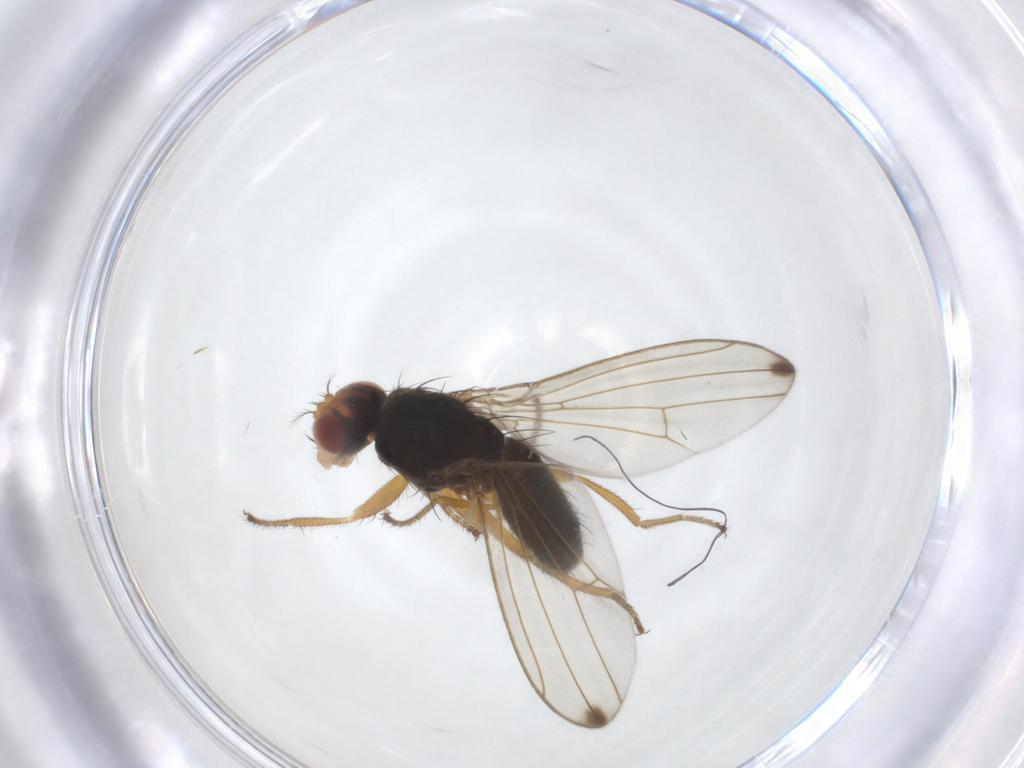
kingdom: Animalia
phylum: Arthropoda
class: Insecta
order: Diptera
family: Drosophilidae
